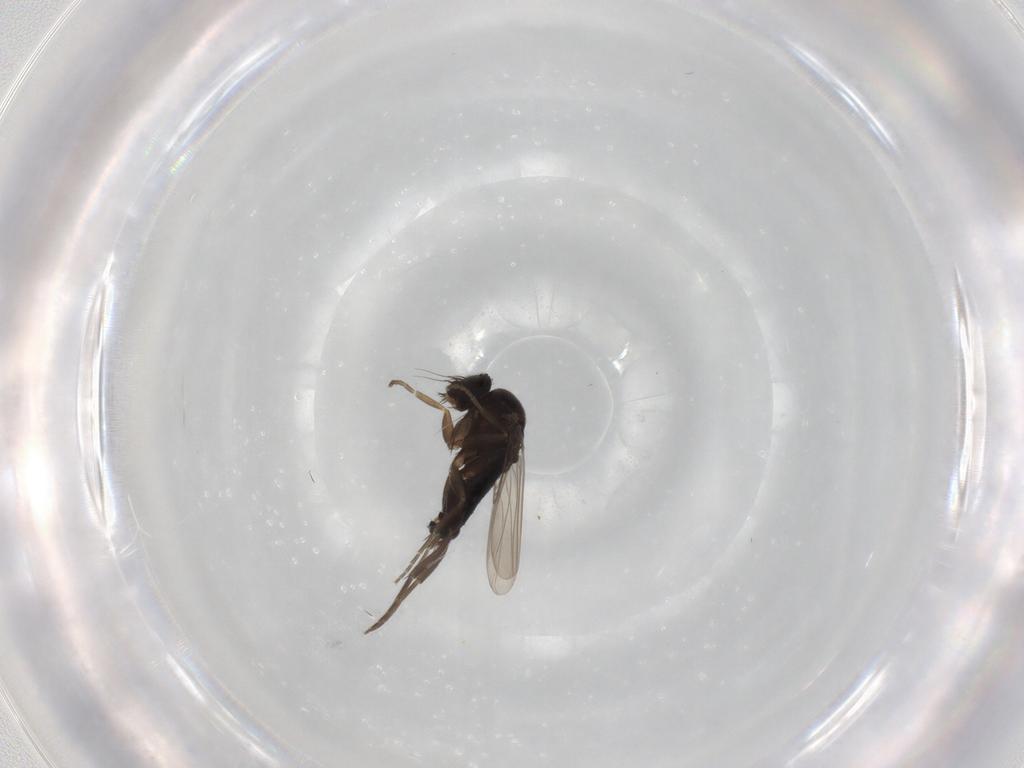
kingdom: Animalia
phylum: Arthropoda
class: Insecta
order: Diptera
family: Phoridae
